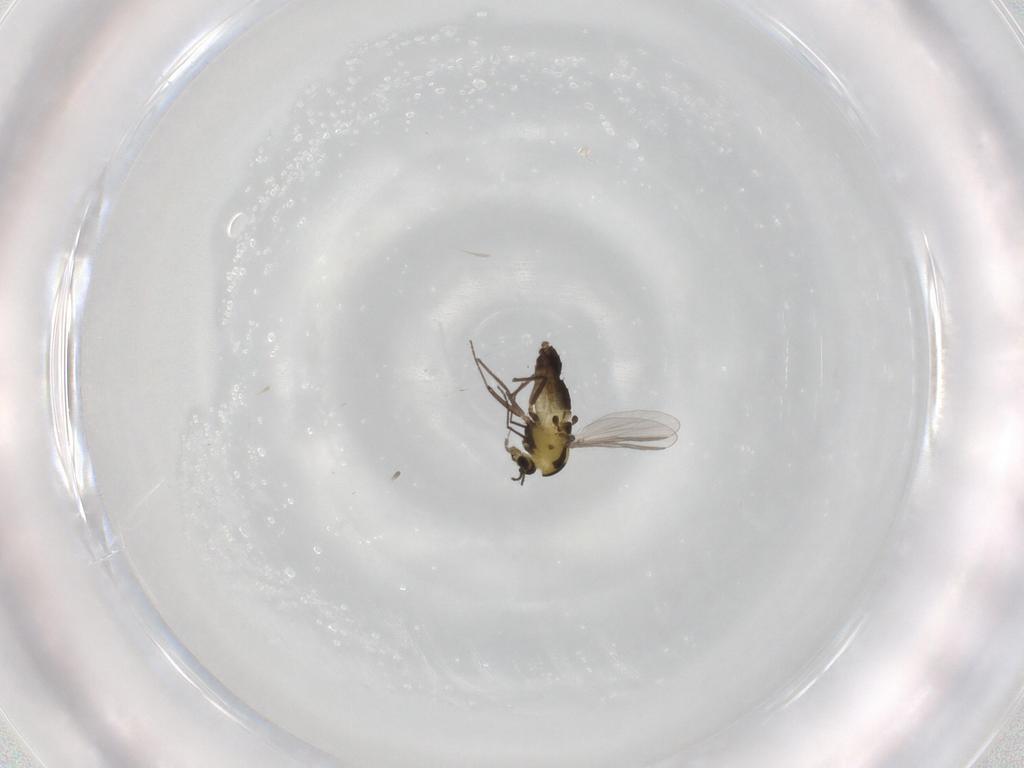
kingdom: Animalia
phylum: Arthropoda
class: Insecta
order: Diptera
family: Chironomidae
